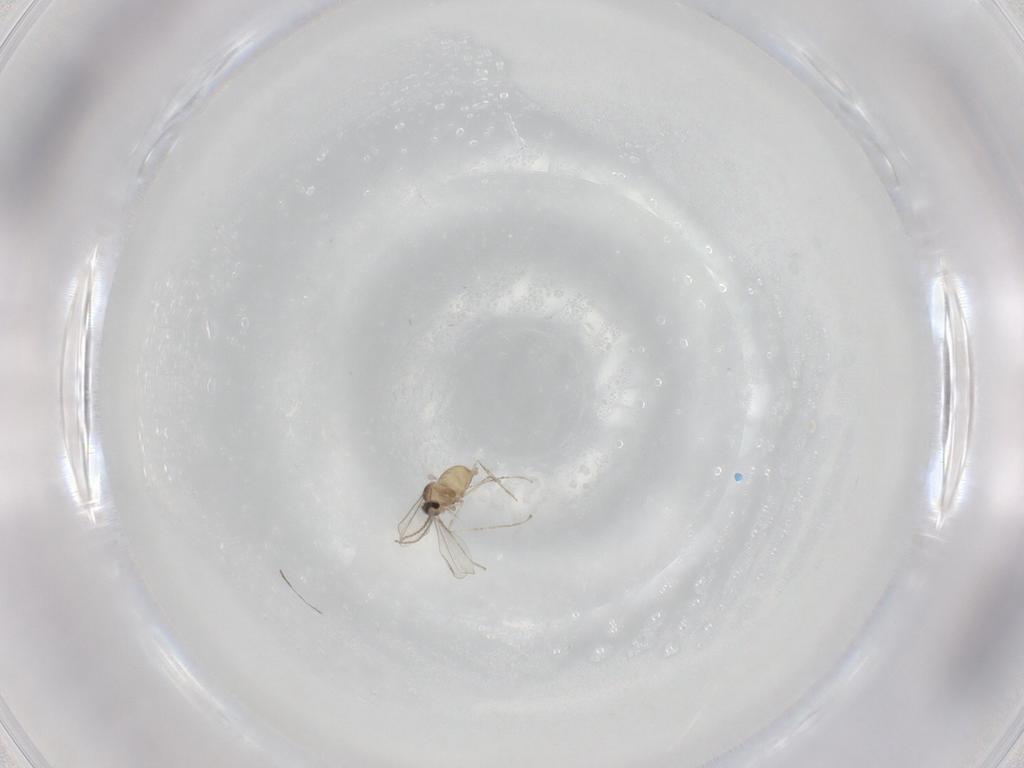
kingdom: Animalia
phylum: Arthropoda
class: Insecta
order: Diptera
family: Cecidomyiidae
